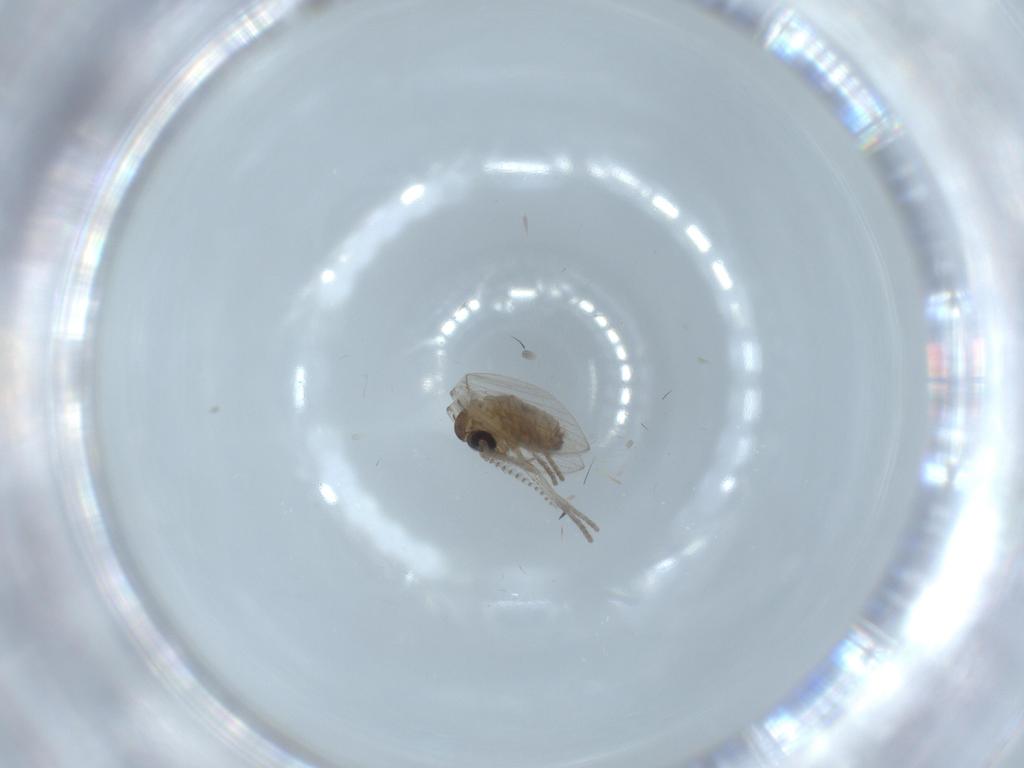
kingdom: Animalia
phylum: Arthropoda
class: Insecta
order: Diptera
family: Psychodidae
